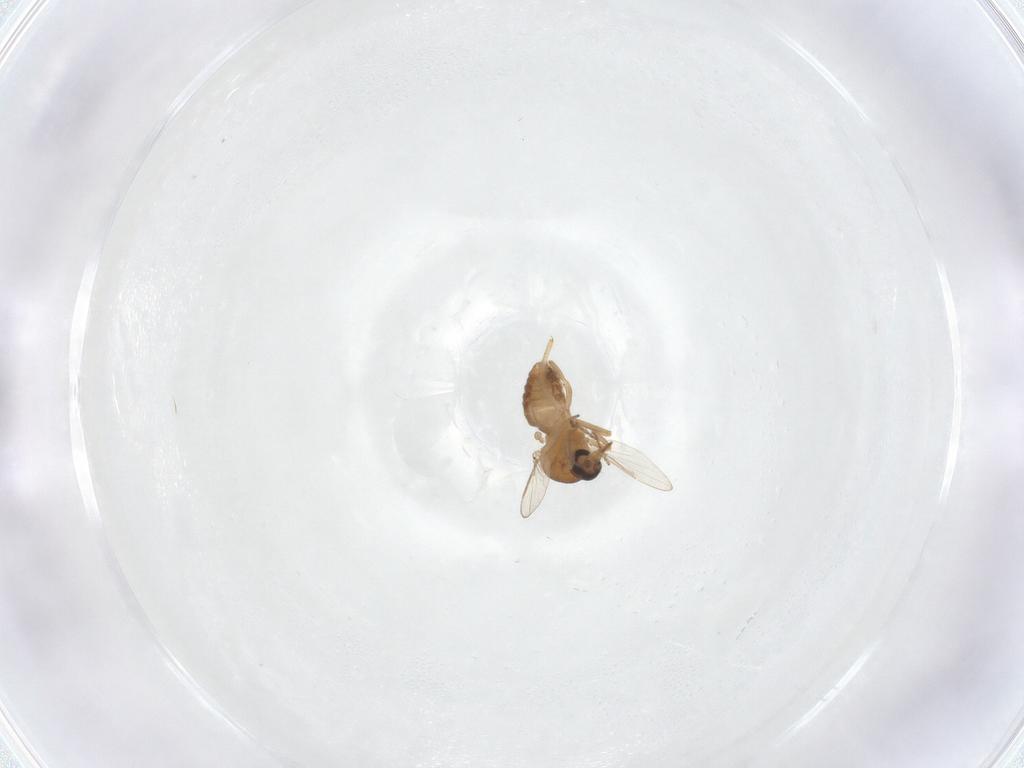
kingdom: Animalia
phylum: Arthropoda
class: Insecta
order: Diptera
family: Ceratopogonidae
